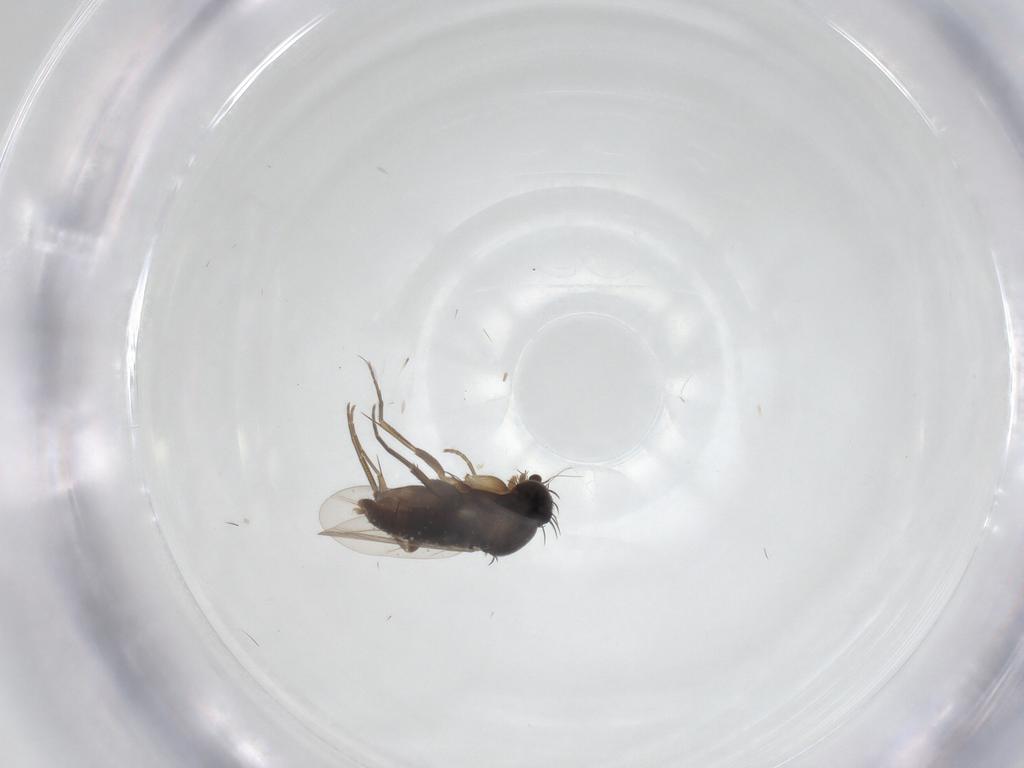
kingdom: Animalia
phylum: Arthropoda
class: Insecta
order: Diptera
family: Phoridae
